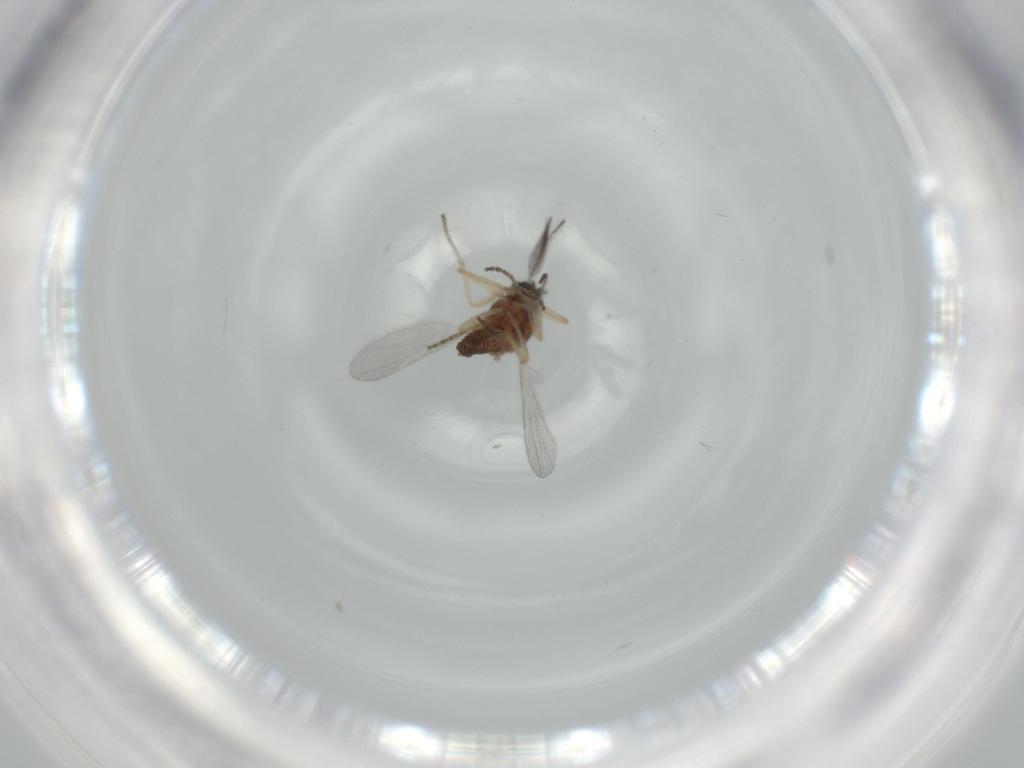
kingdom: Animalia
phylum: Arthropoda
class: Insecta
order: Diptera
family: Ceratopogonidae
